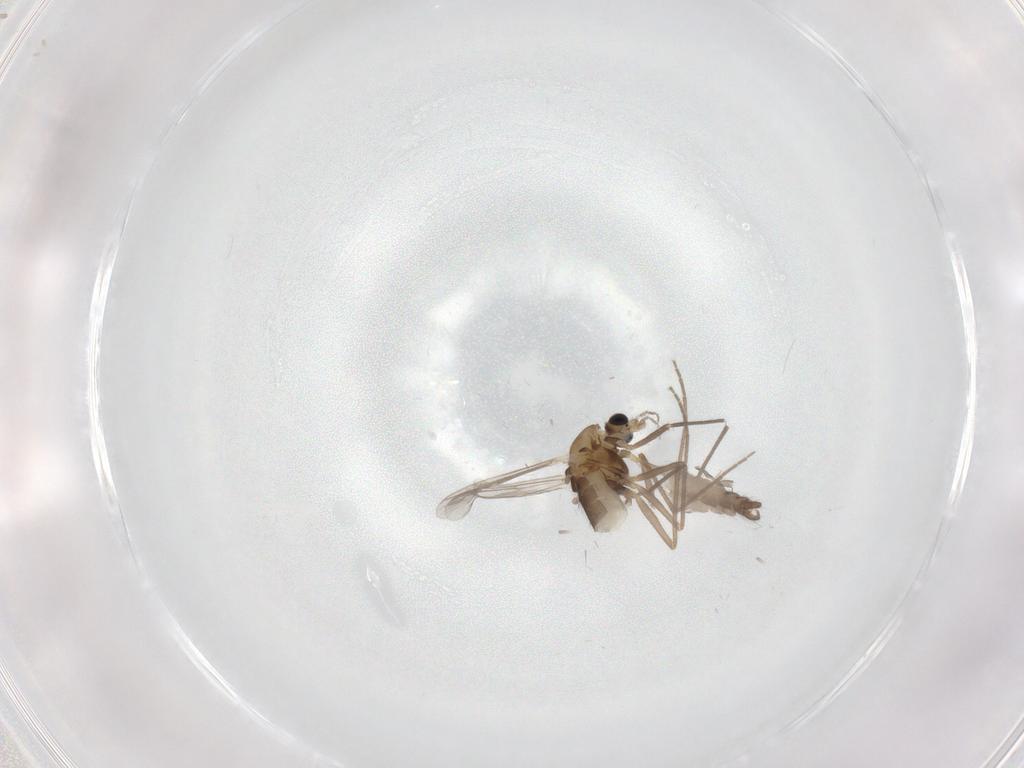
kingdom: Animalia
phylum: Arthropoda
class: Insecta
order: Diptera
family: Chironomidae
